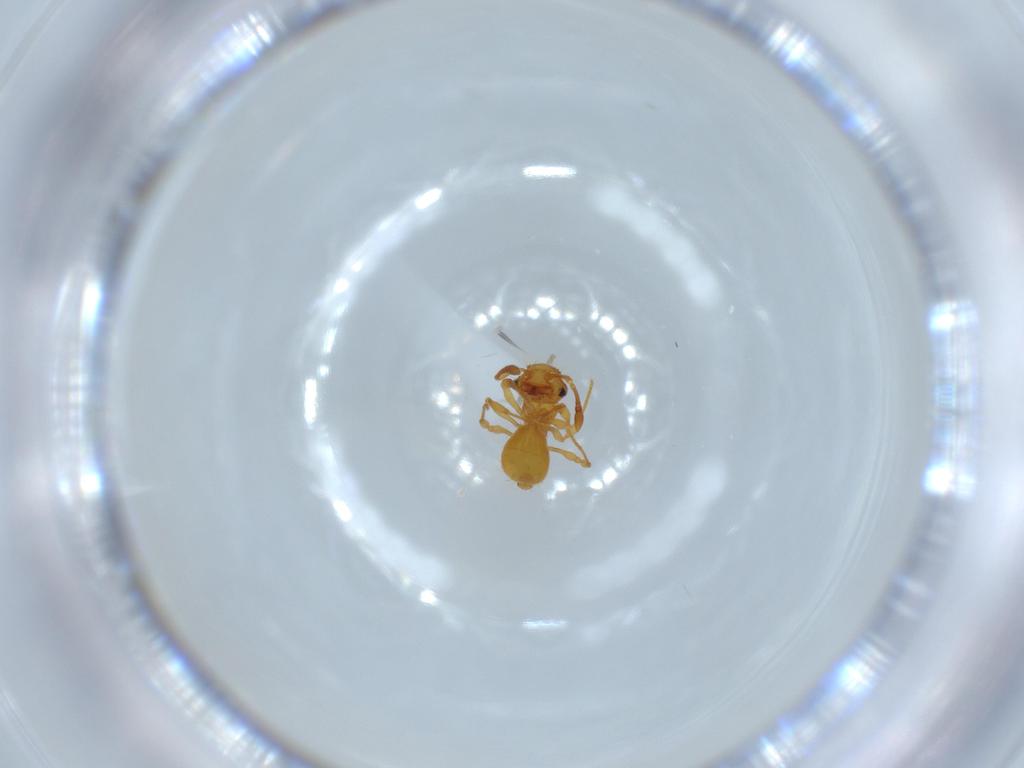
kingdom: Animalia
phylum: Arthropoda
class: Insecta
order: Hymenoptera
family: Formicidae
